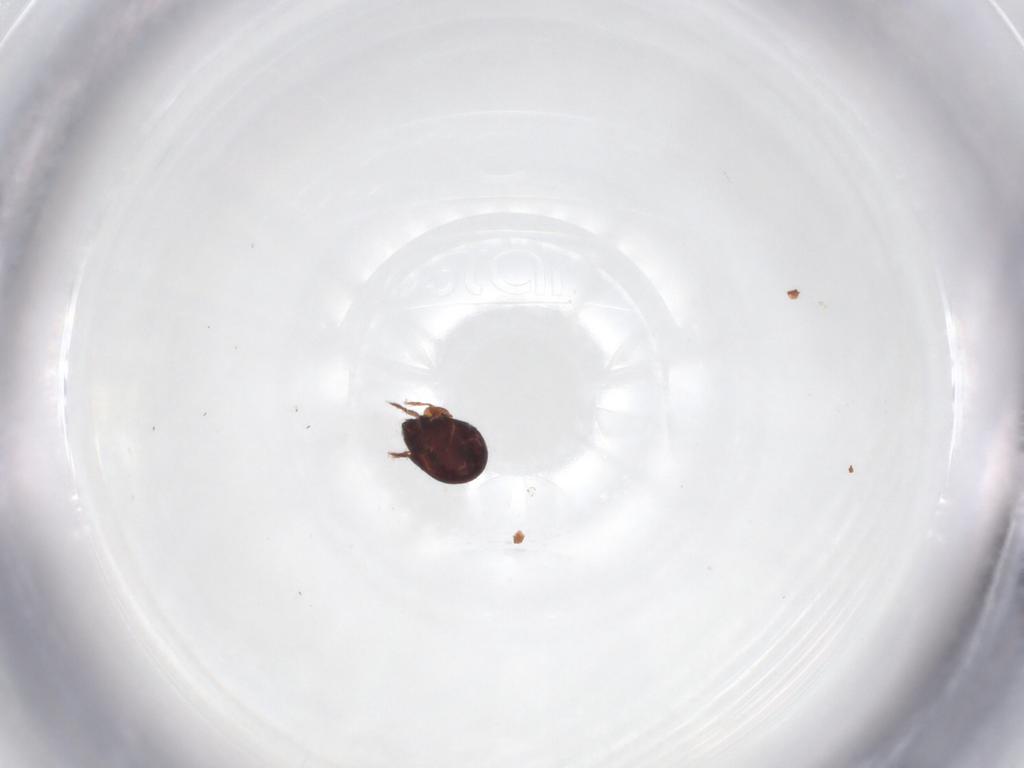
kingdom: Animalia
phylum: Arthropoda
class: Arachnida
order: Sarcoptiformes
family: Humerobatidae
